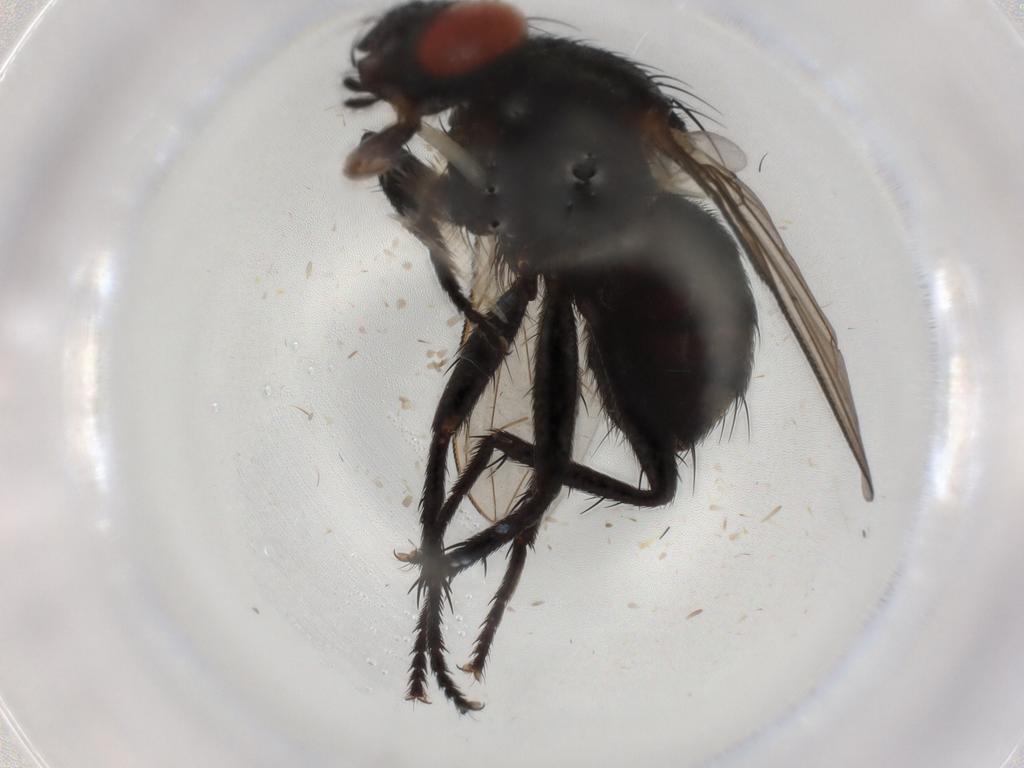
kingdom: Animalia
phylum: Arthropoda
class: Insecta
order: Diptera
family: Sarcophagidae
